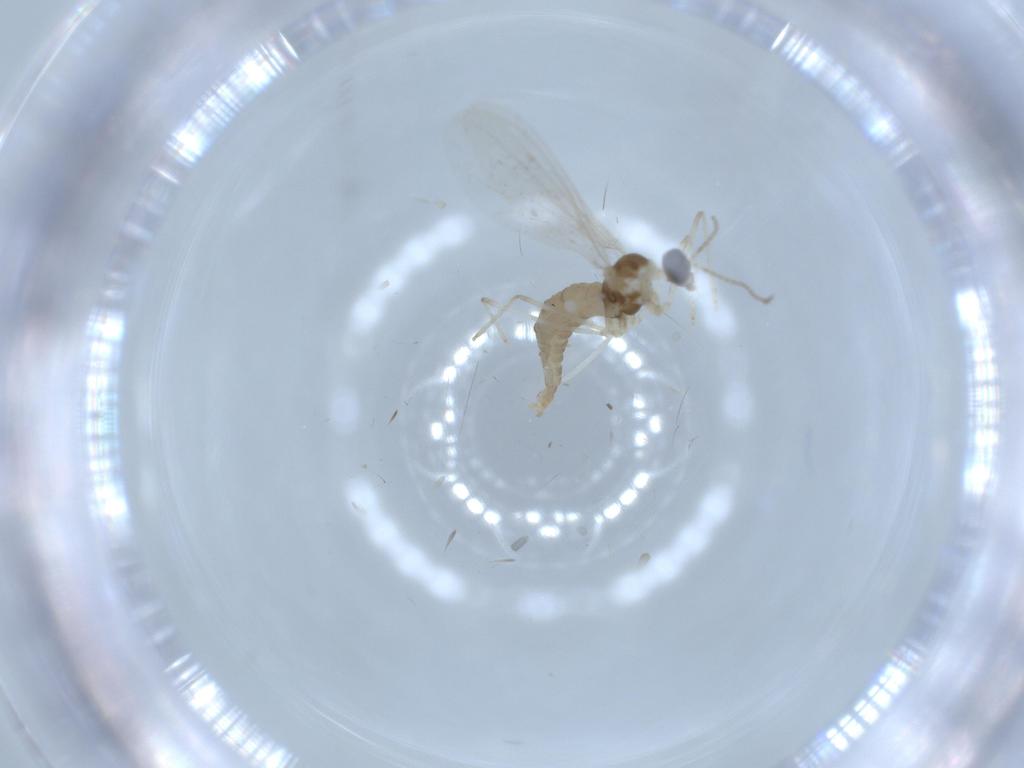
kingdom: Animalia
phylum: Arthropoda
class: Insecta
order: Diptera
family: Cecidomyiidae
